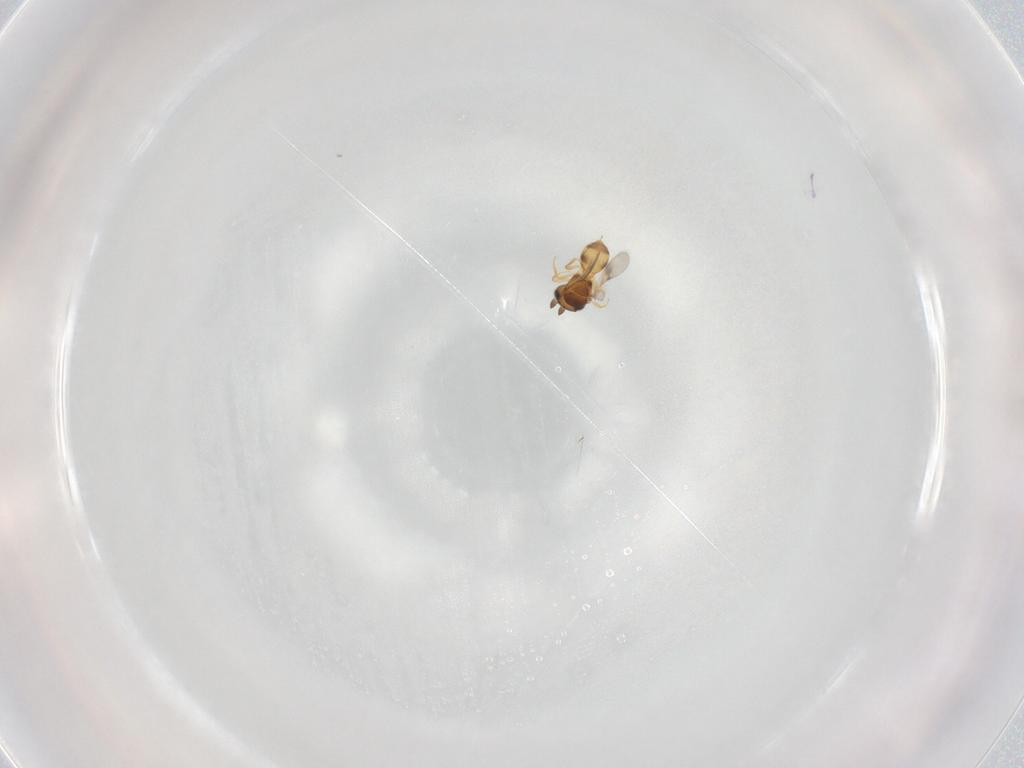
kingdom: Animalia
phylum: Arthropoda
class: Insecta
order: Hymenoptera
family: Scelionidae
